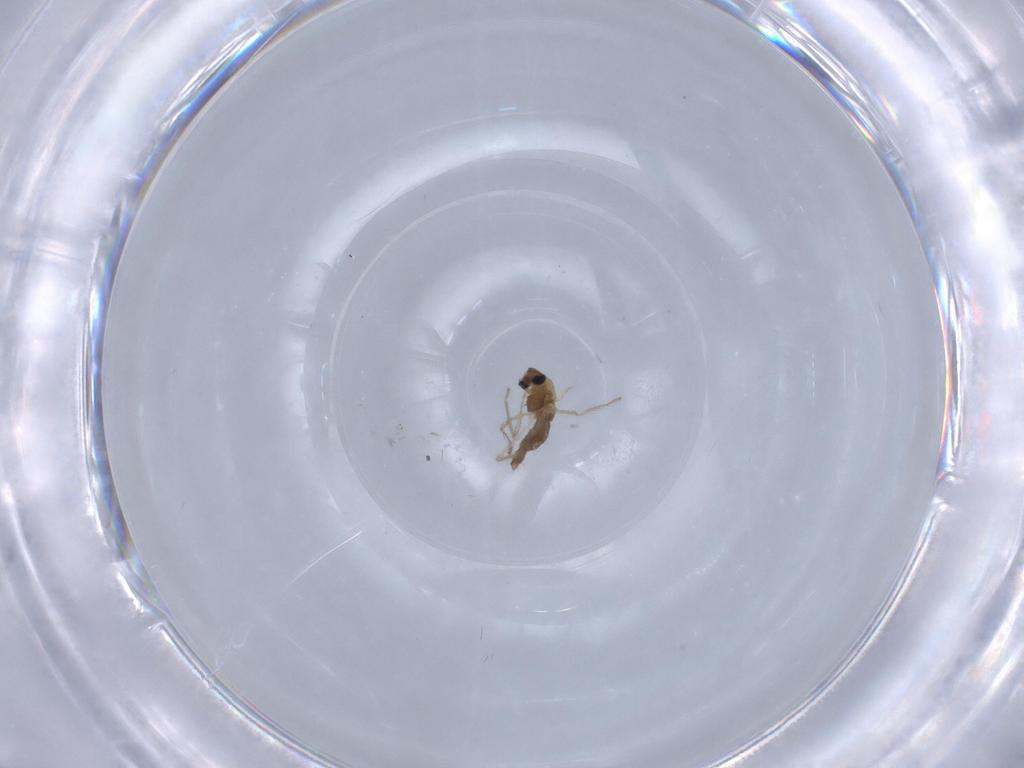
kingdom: Animalia
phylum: Arthropoda
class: Insecta
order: Diptera
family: Chironomidae
